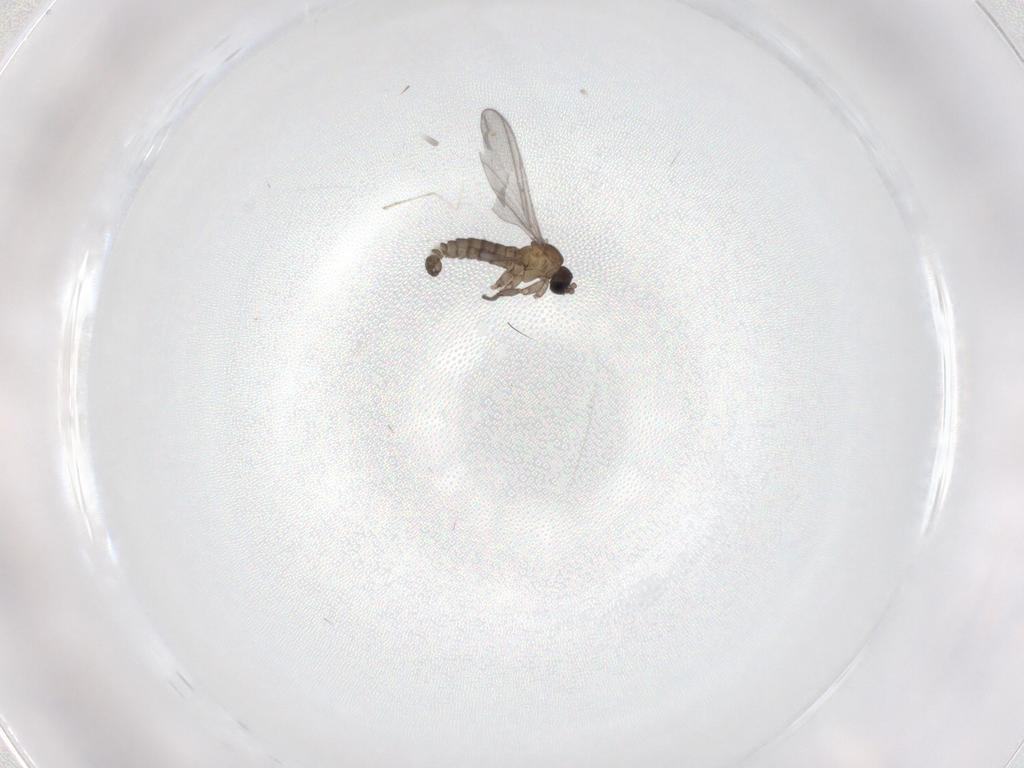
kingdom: Animalia
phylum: Arthropoda
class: Insecta
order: Diptera
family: Sciaridae
